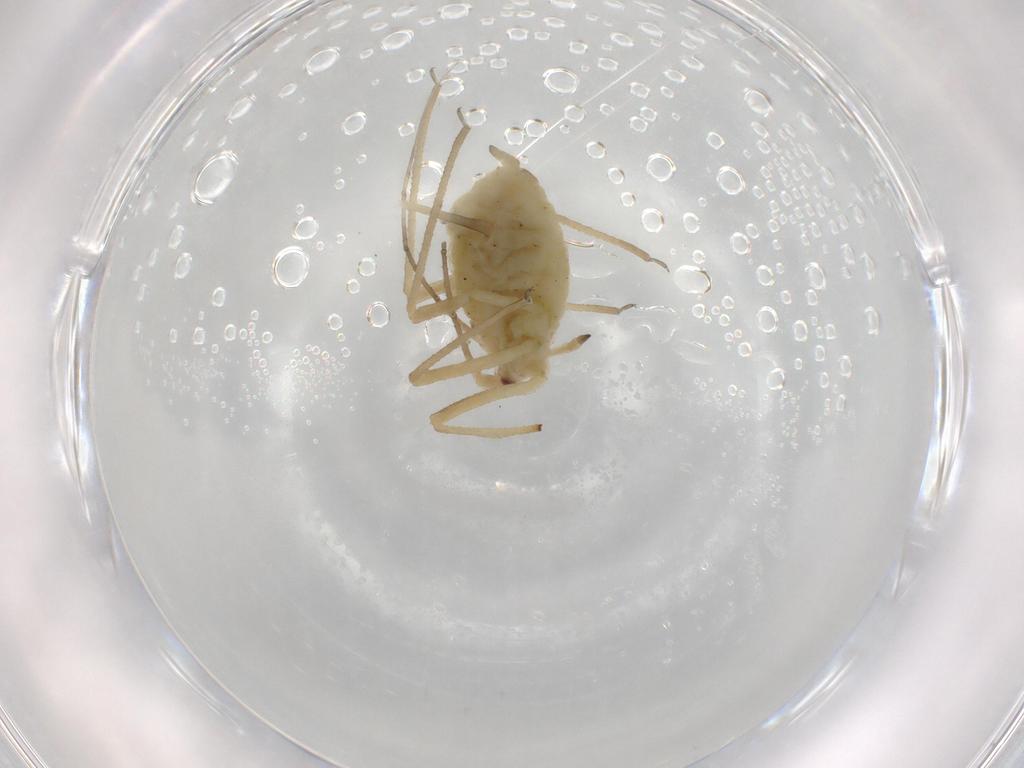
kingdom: Animalia
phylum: Arthropoda
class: Insecta
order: Hemiptera
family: Aphididae
